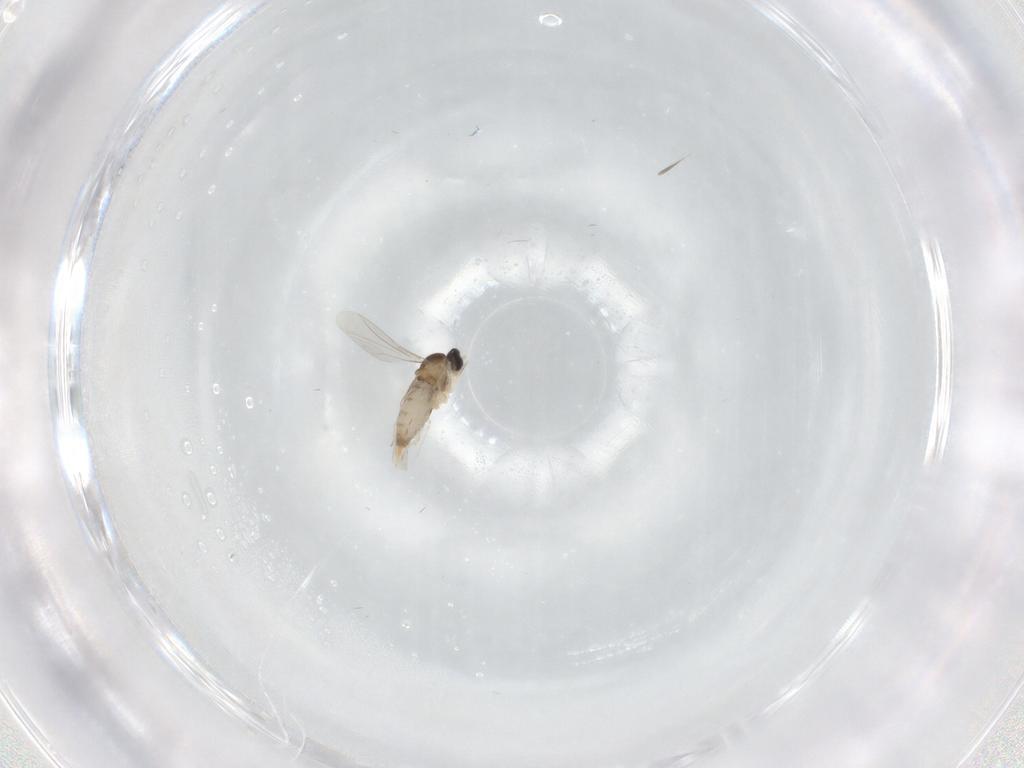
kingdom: Animalia
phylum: Arthropoda
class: Insecta
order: Diptera
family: Cecidomyiidae
